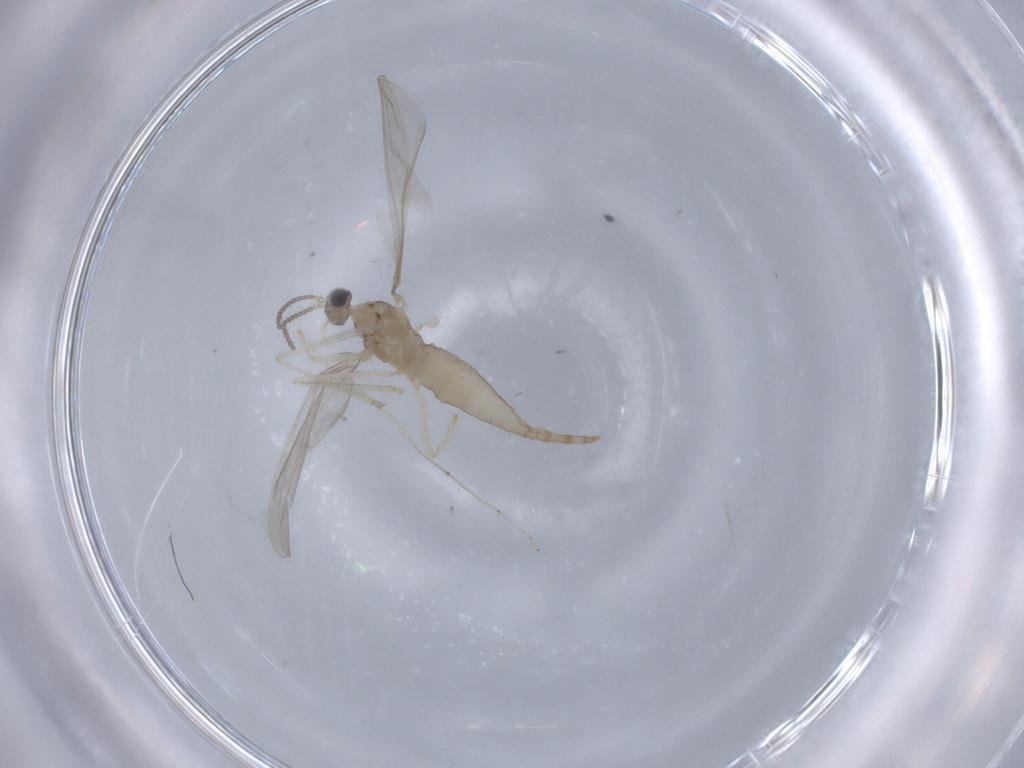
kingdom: Animalia
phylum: Arthropoda
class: Insecta
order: Diptera
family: Cecidomyiidae
